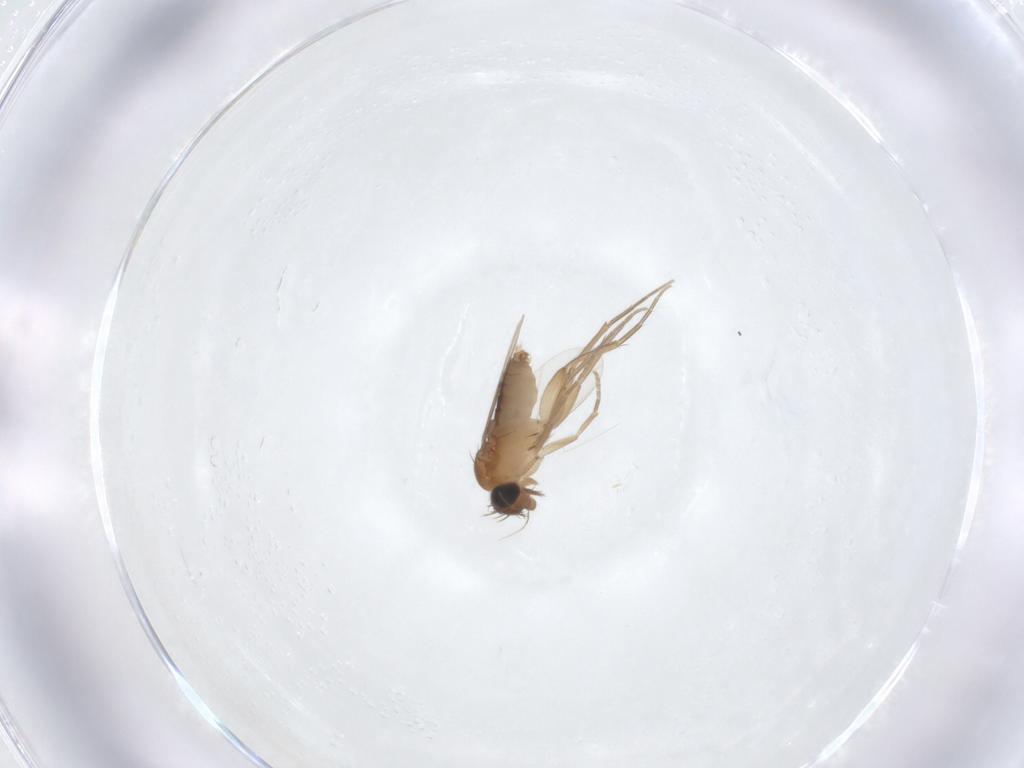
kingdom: Animalia
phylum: Arthropoda
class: Insecta
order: Diptera
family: Phoridae
